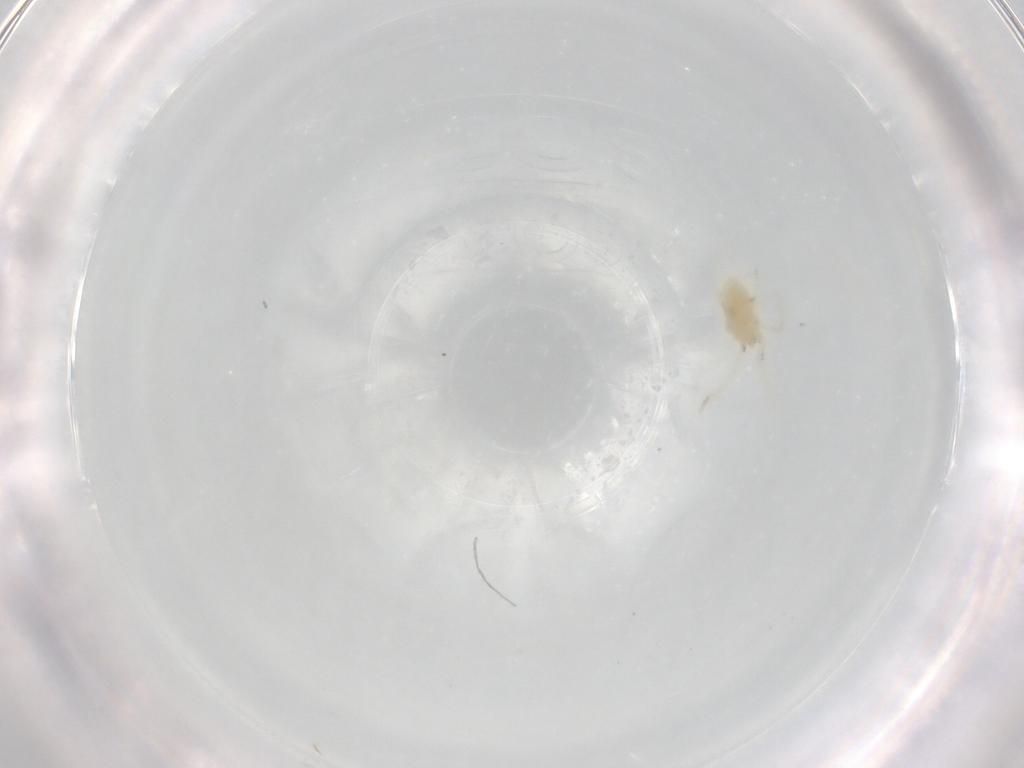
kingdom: Animalia
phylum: Arthropoda
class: Arachnida
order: Trombidiformes
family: Rhagidiidae
